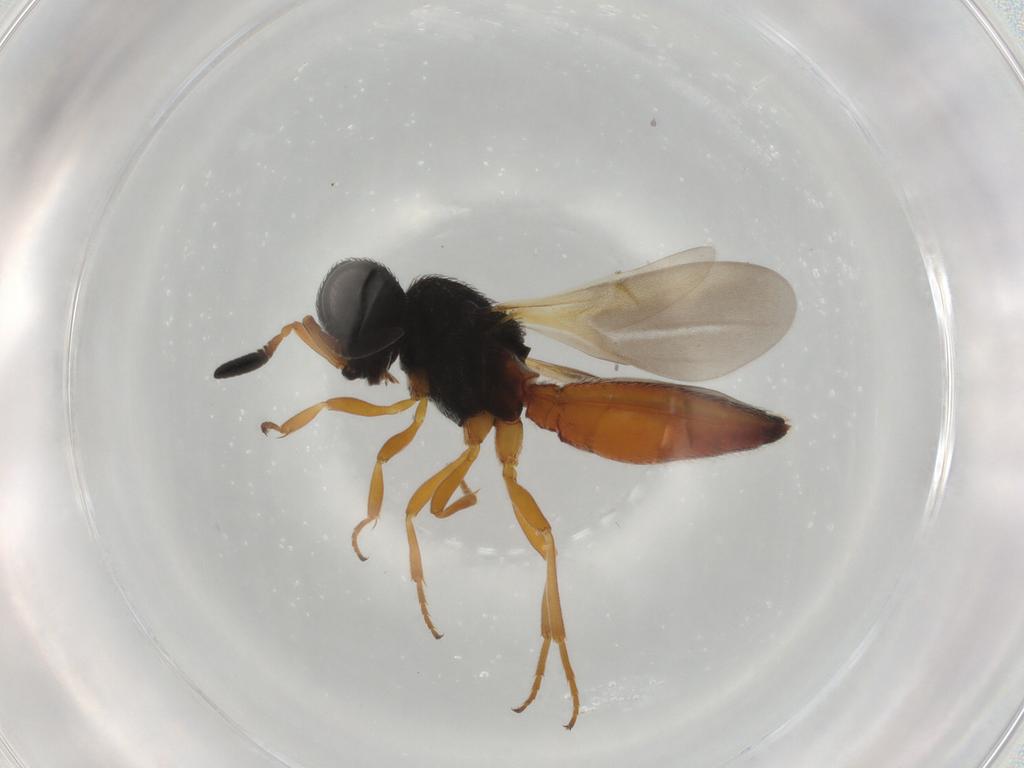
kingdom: Animalia
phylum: Arthropoda
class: Insecta
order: Hymenoptera
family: Scelionidae
